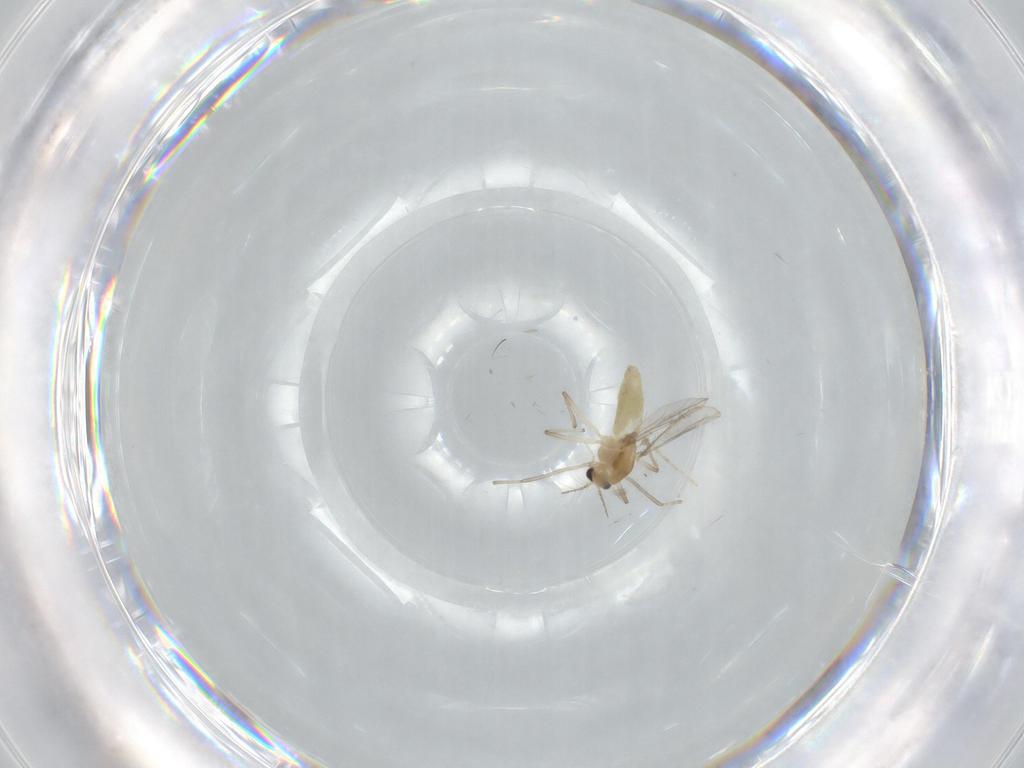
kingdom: Animalia
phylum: Arthropoda
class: Insecta
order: Diptera
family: Chironomidae
